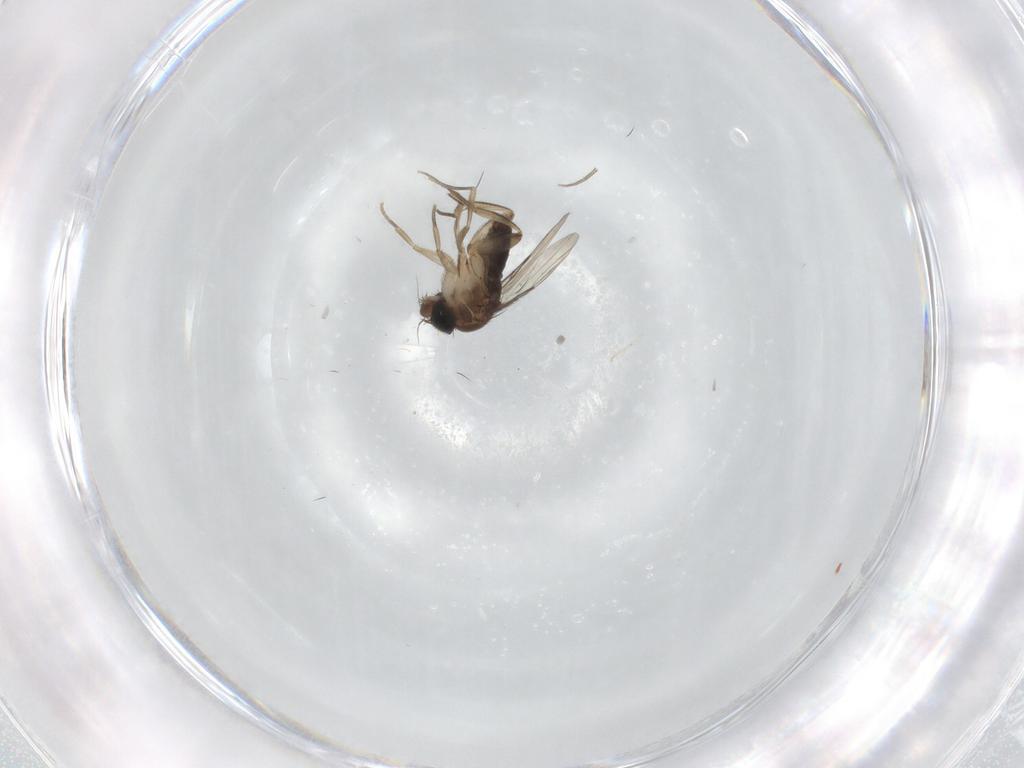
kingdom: Animalia
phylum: Arthropoda
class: Insecta
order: Diptera
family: Phoridae
